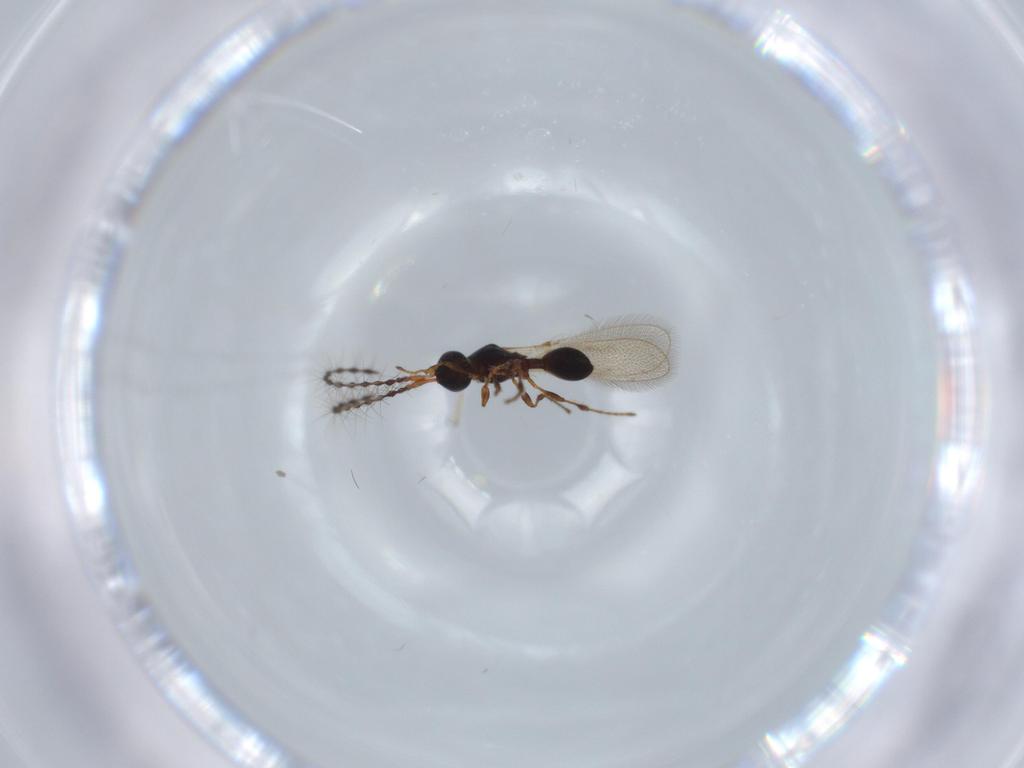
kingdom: Animalia
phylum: Arthropoda
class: Insecta
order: Hymenoptera
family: Diapriidae
